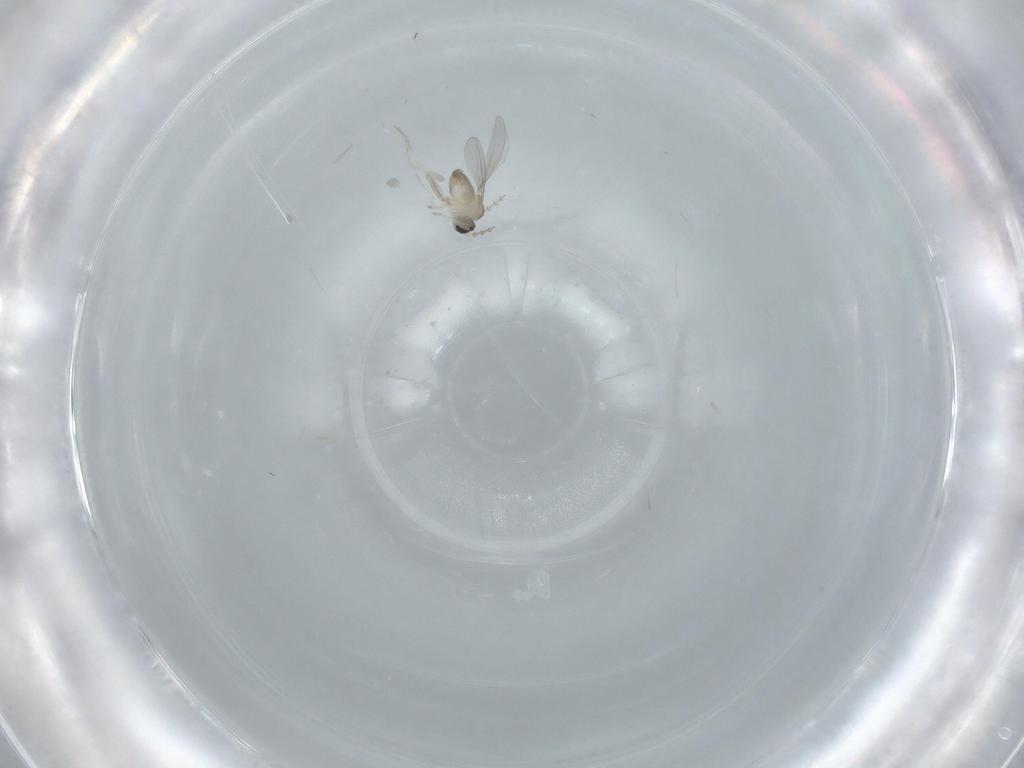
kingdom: Animalia
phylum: Arthropoda
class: Insecta
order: Diptera
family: Cecidomyiidae
